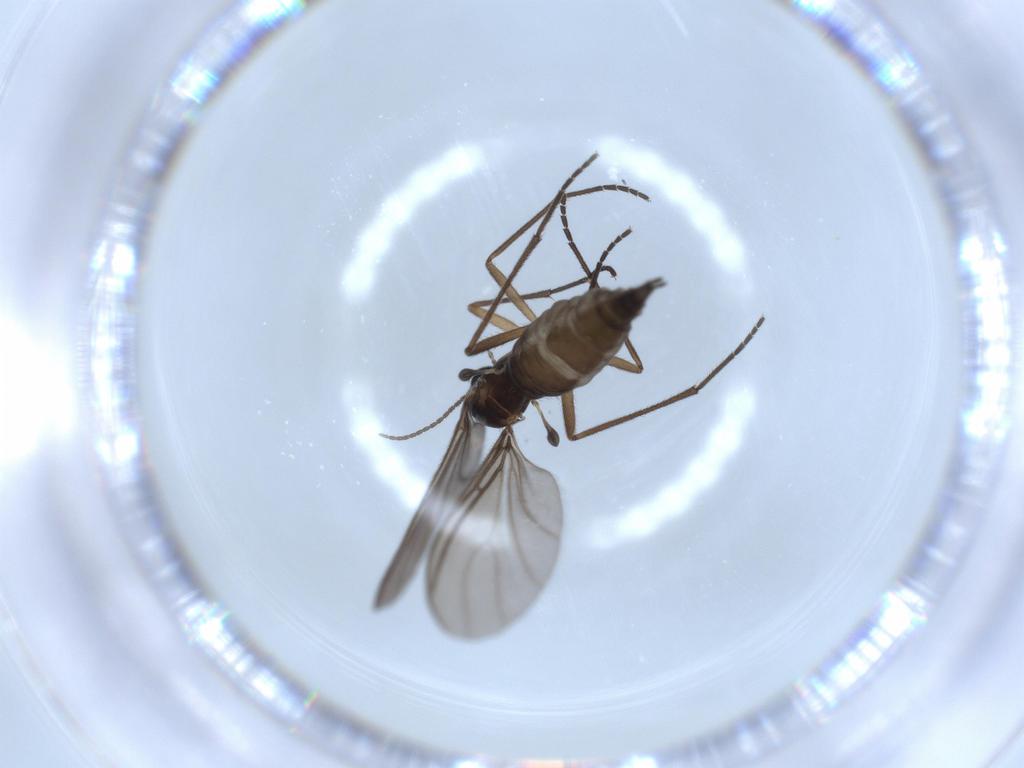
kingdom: Animalia
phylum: Arthropoda
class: Insecta
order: Diptera
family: Sciaridae
